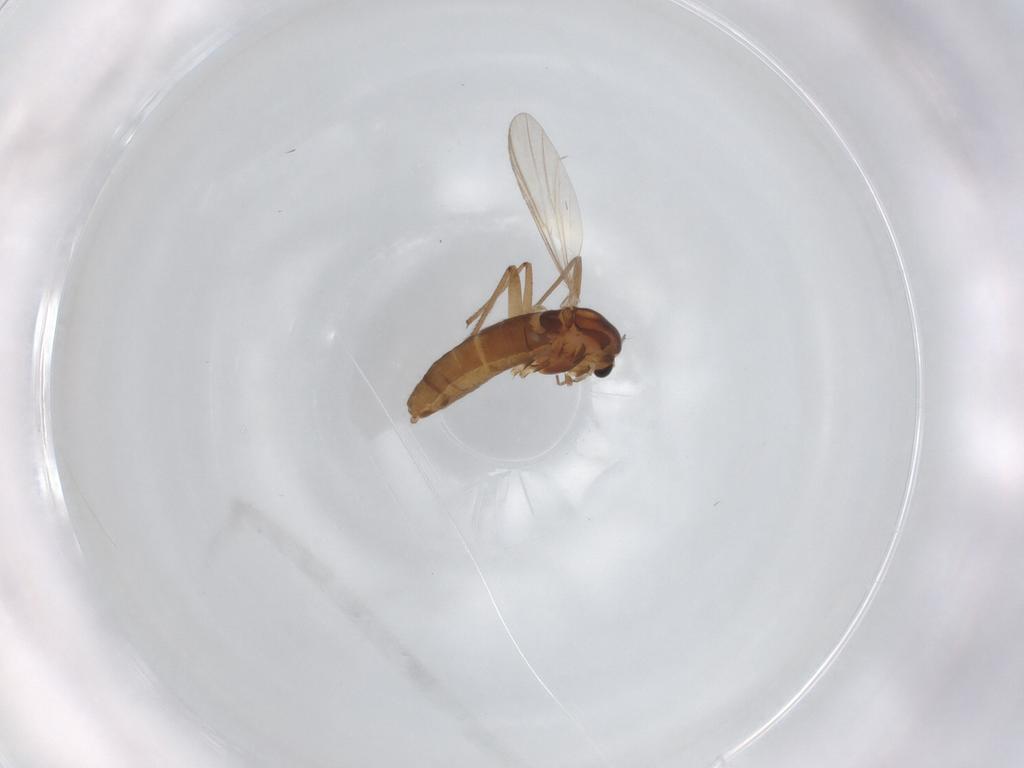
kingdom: Animalia
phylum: Arthropoda
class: Insecta
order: Diptera
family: Chironomidae
